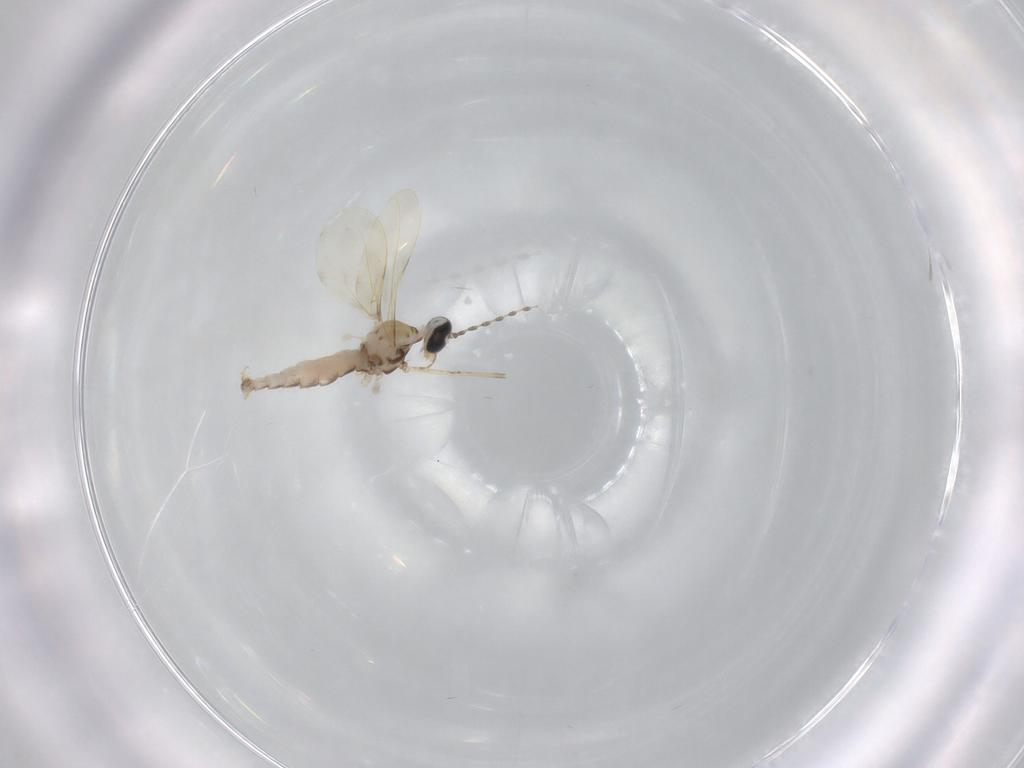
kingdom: Animalia
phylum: Arthropoda
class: Insecta
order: Diptera
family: Cecidomyiidae
